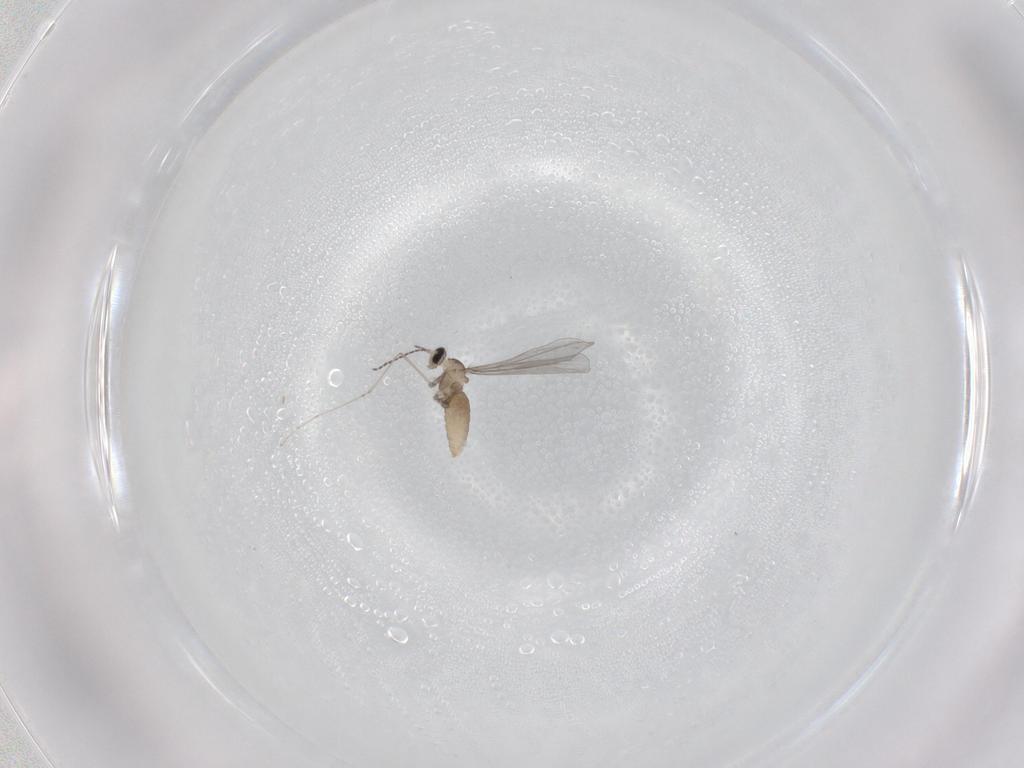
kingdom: Animalia
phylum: Arthropoda
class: Insecta
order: Diptera
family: Cecidomyiidae
